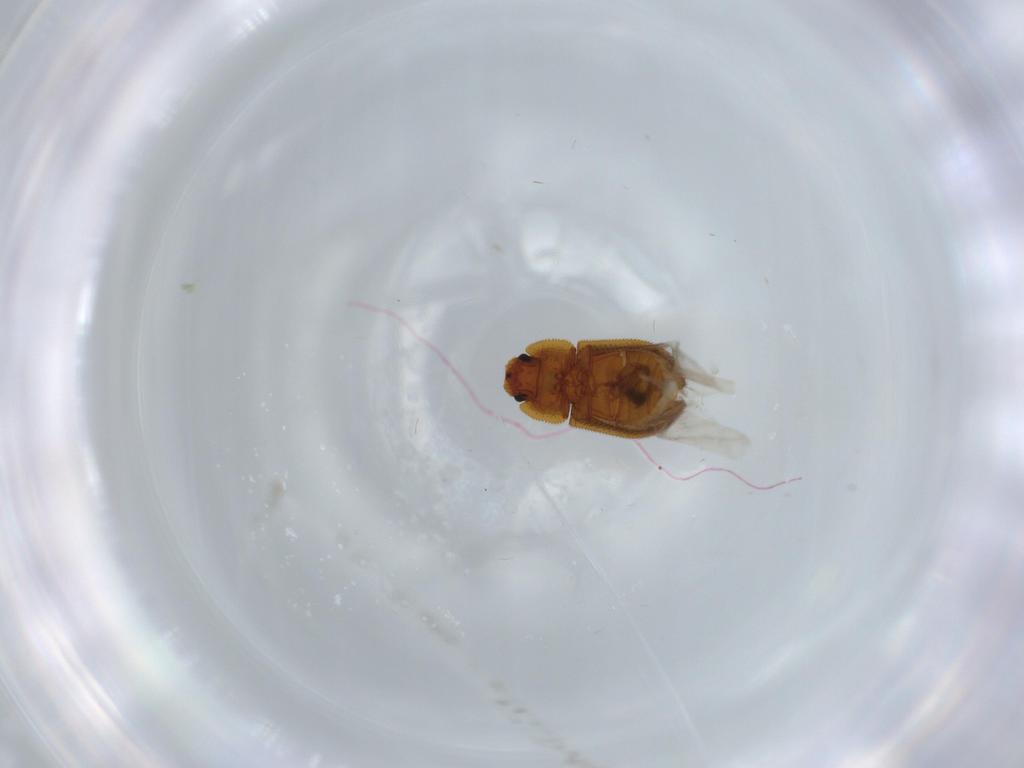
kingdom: Animalia
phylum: Arthropoda
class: Insecta
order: Coleoptera
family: Zopheridae
